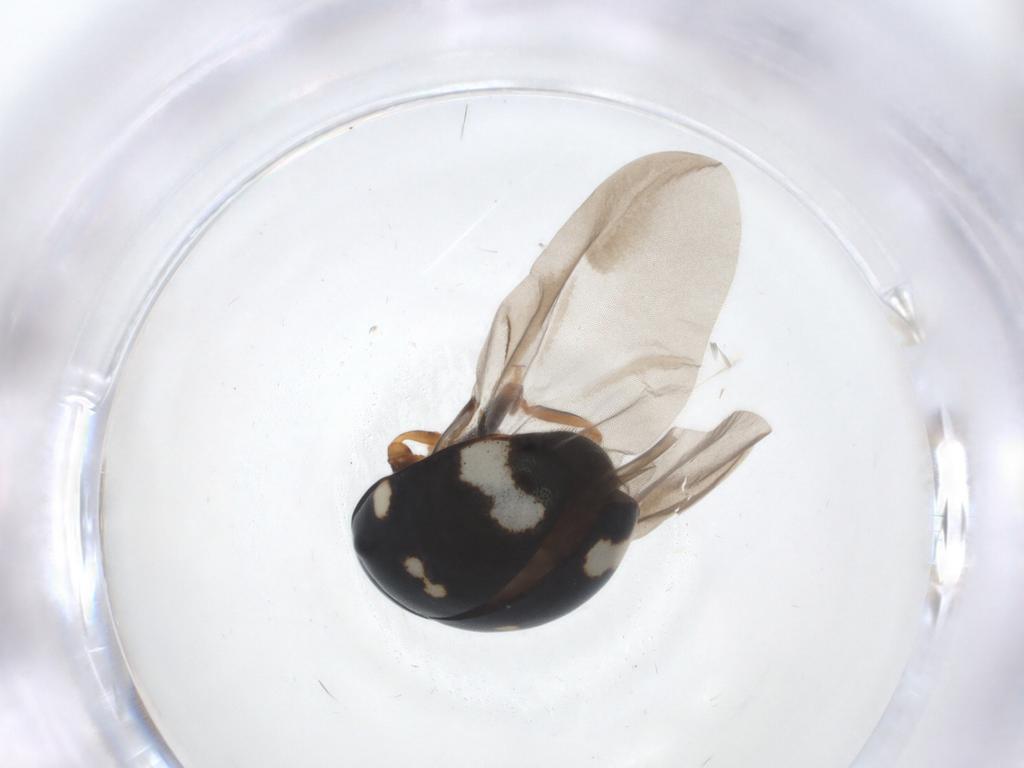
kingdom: Animalia
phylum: Arthropoda
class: Insecta
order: Coleoptera
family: Coccinellidae
